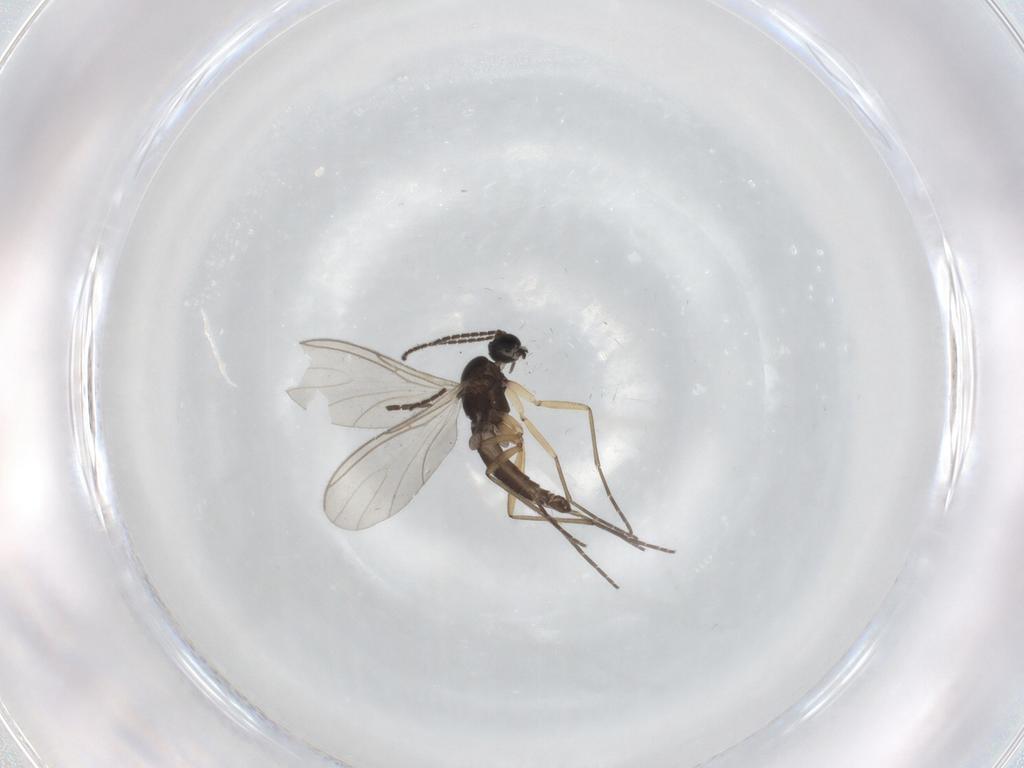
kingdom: Animalia
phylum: Arthropoda
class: Insecta
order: Diptera
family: Sciaridae
